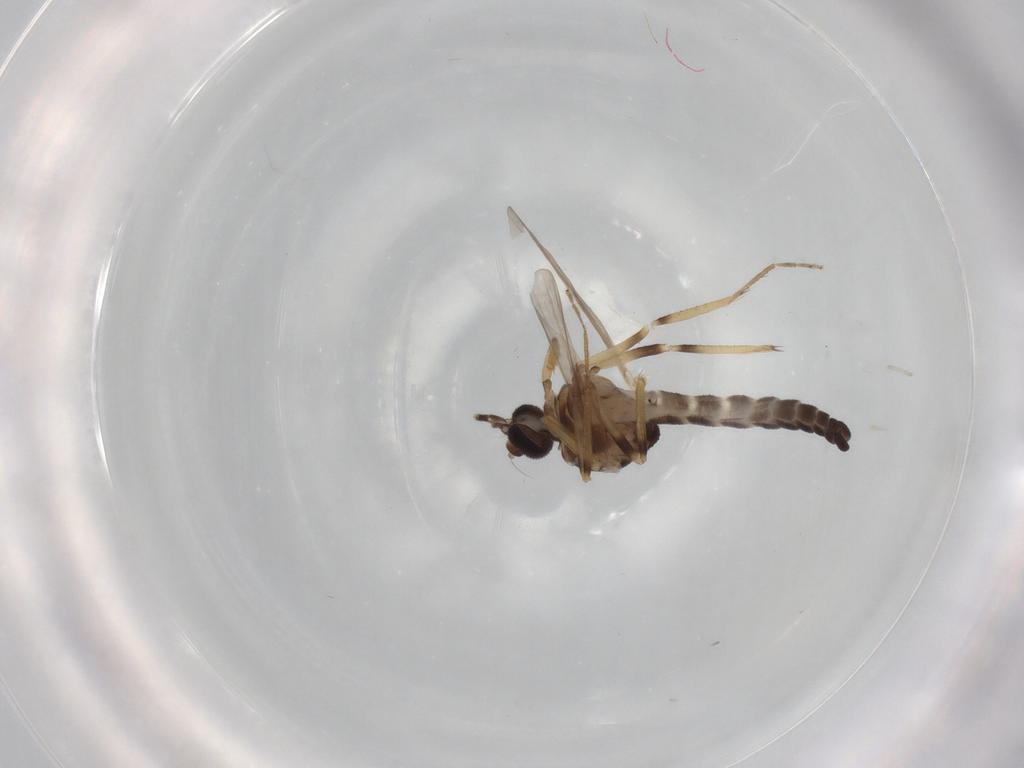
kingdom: Animalia
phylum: Arthropoda
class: Insecta
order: Diptera
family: Ceratopogonidae
